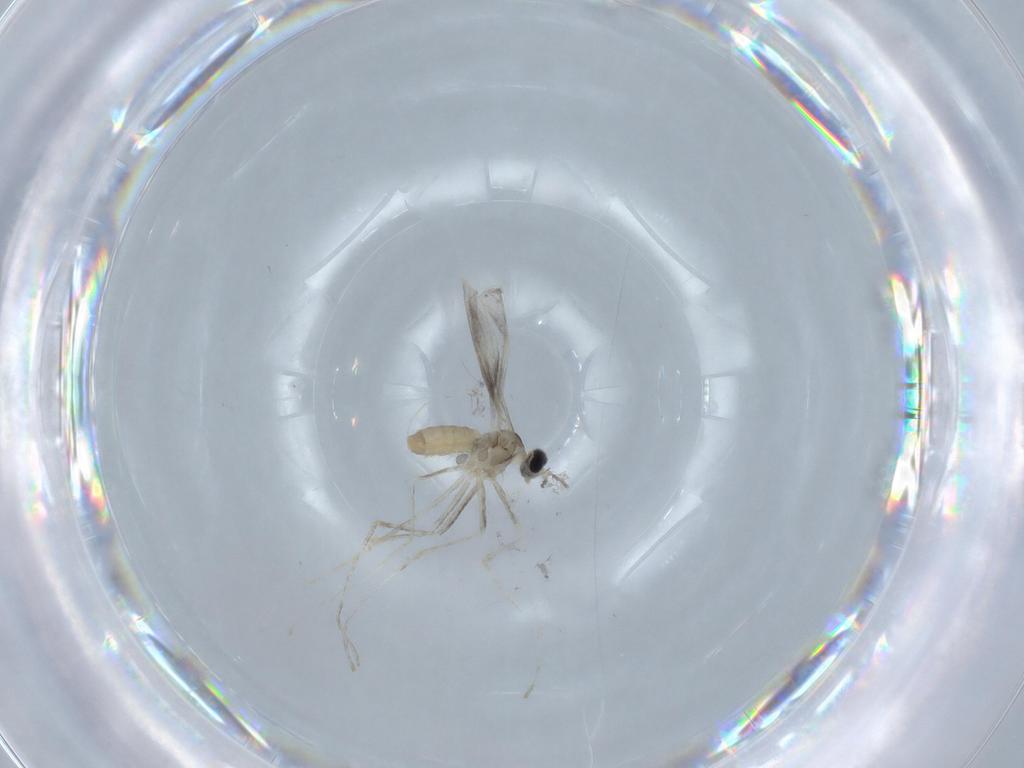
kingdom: Animalia
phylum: Arthropoda
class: Insecta
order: Diptera
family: Cecidomyiidae
